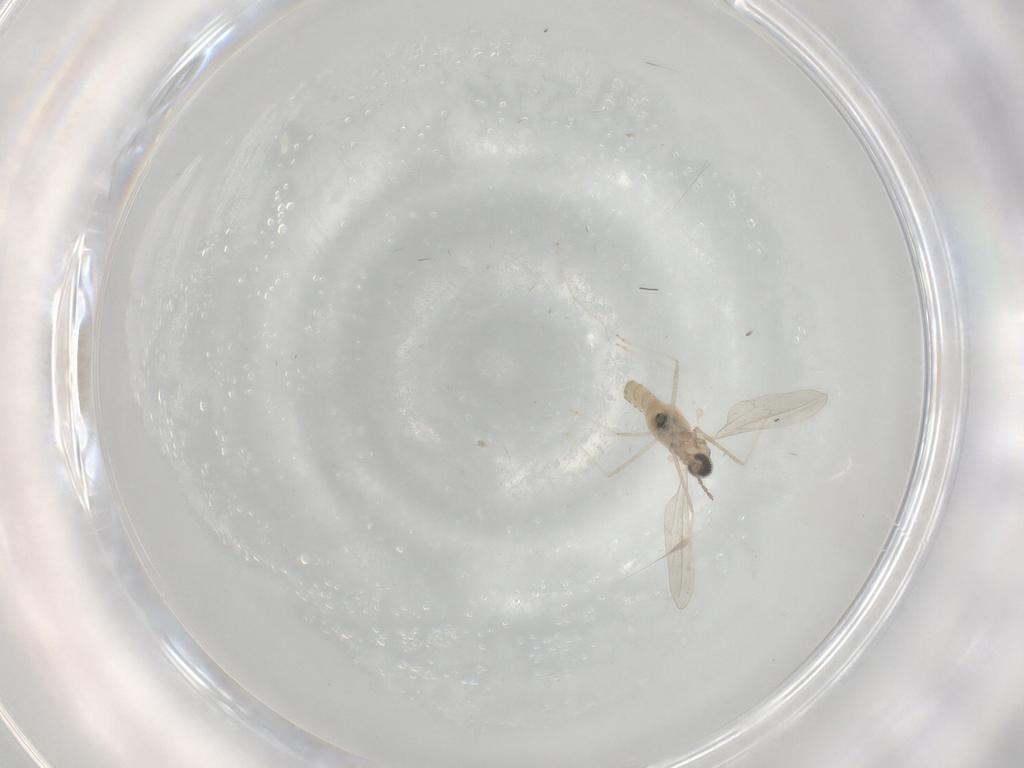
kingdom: Animalia
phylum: Arthropoda
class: Insecta
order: Diptera
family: Cecidomyiidae
